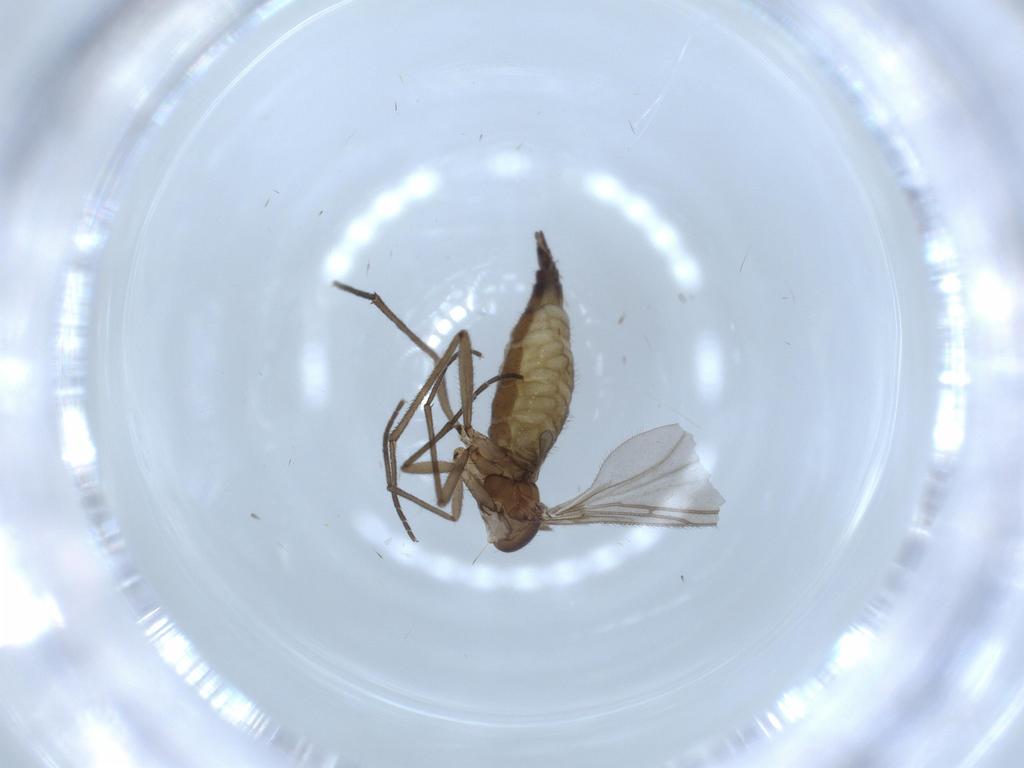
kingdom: Animalia
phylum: Arthropoda
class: Insecta
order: Diptera
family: Sciaridae
